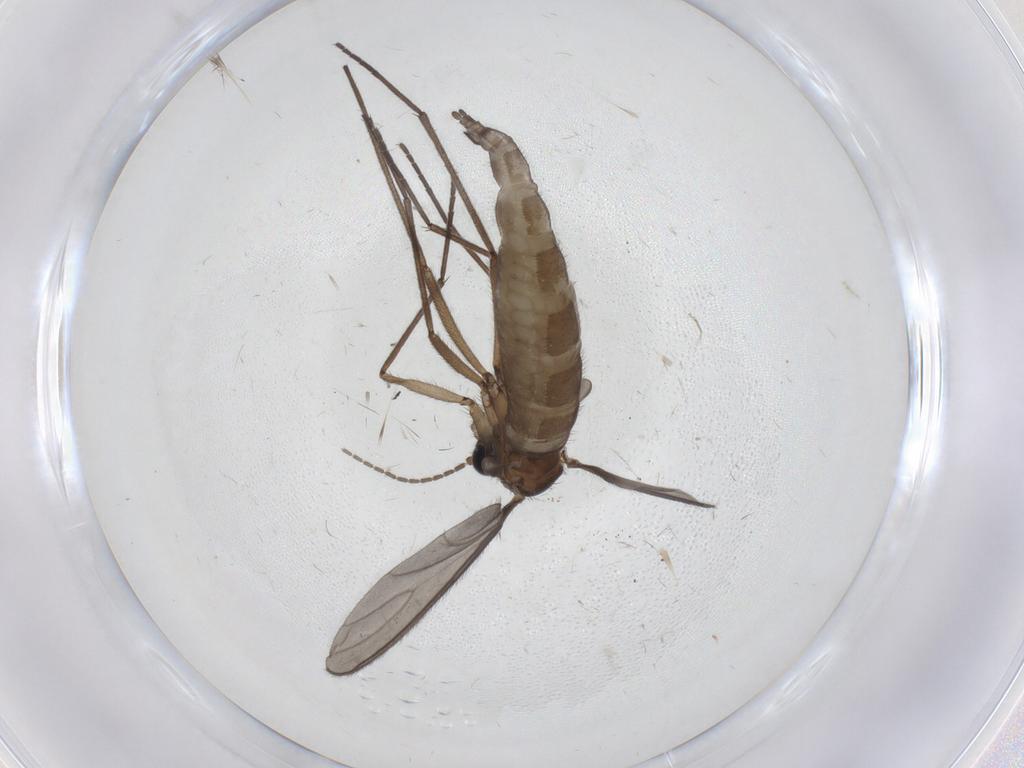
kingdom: Animalia
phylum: Arthropoda
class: Insecta
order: Diptera
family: Sciaridae
